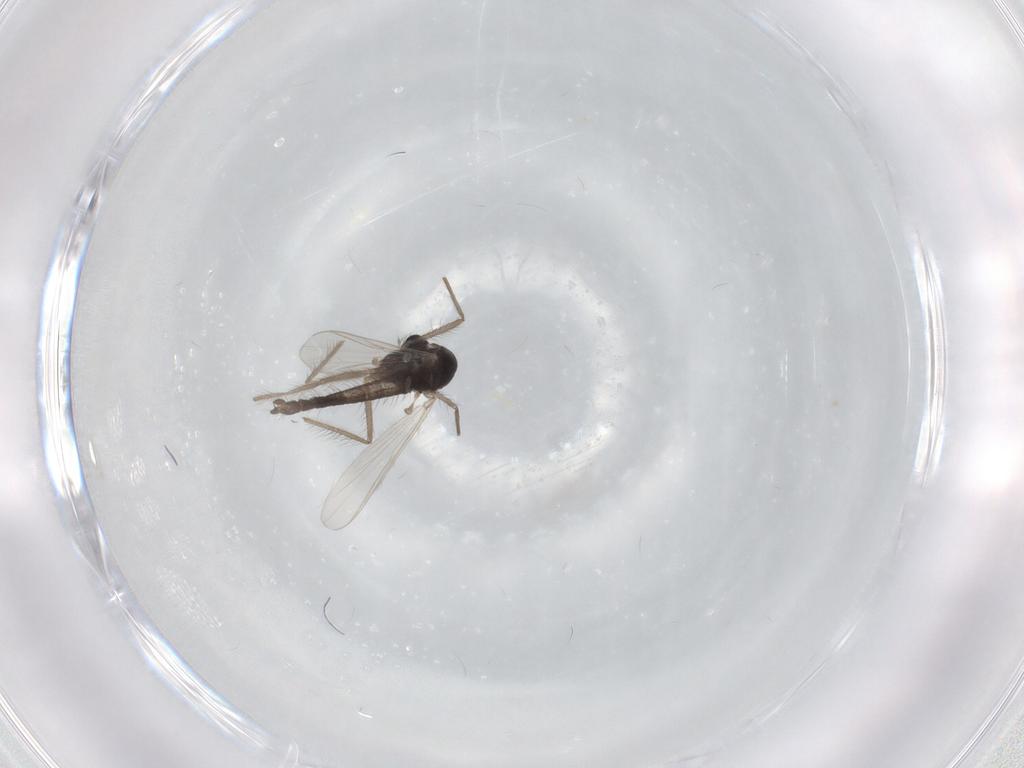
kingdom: Animalia
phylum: Arthropoda
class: Insecta
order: Diptera
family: Chironomidae
